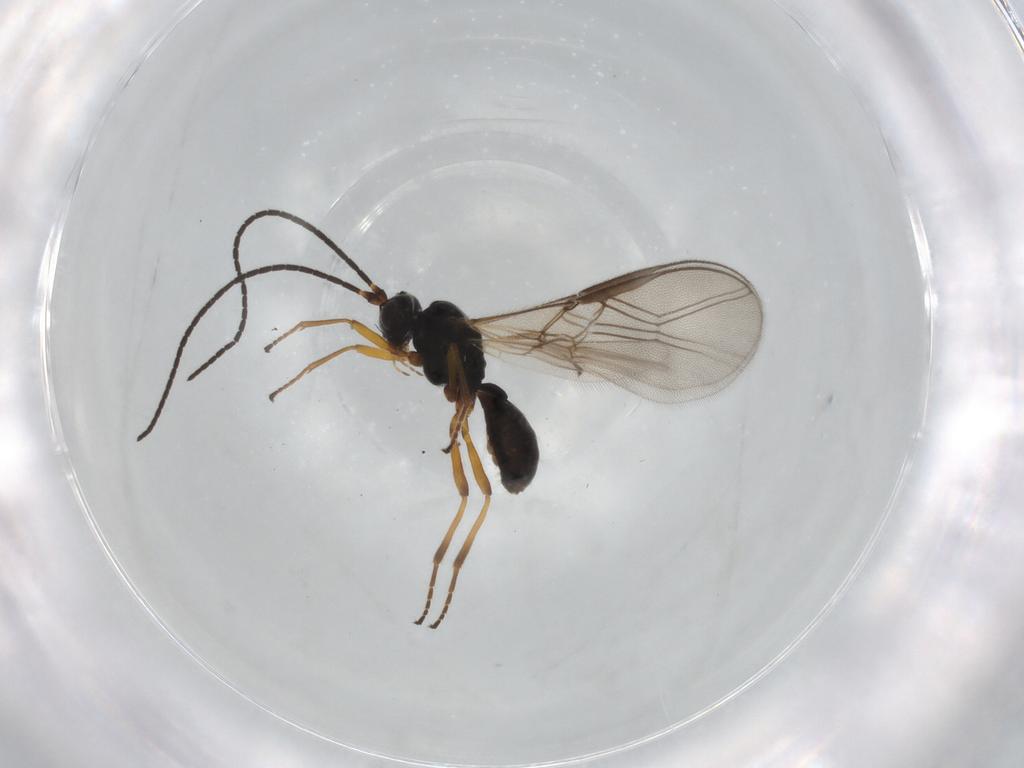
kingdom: Animalia
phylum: Arthropoda
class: Insecta
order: Hymenoptera
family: Braconidae
